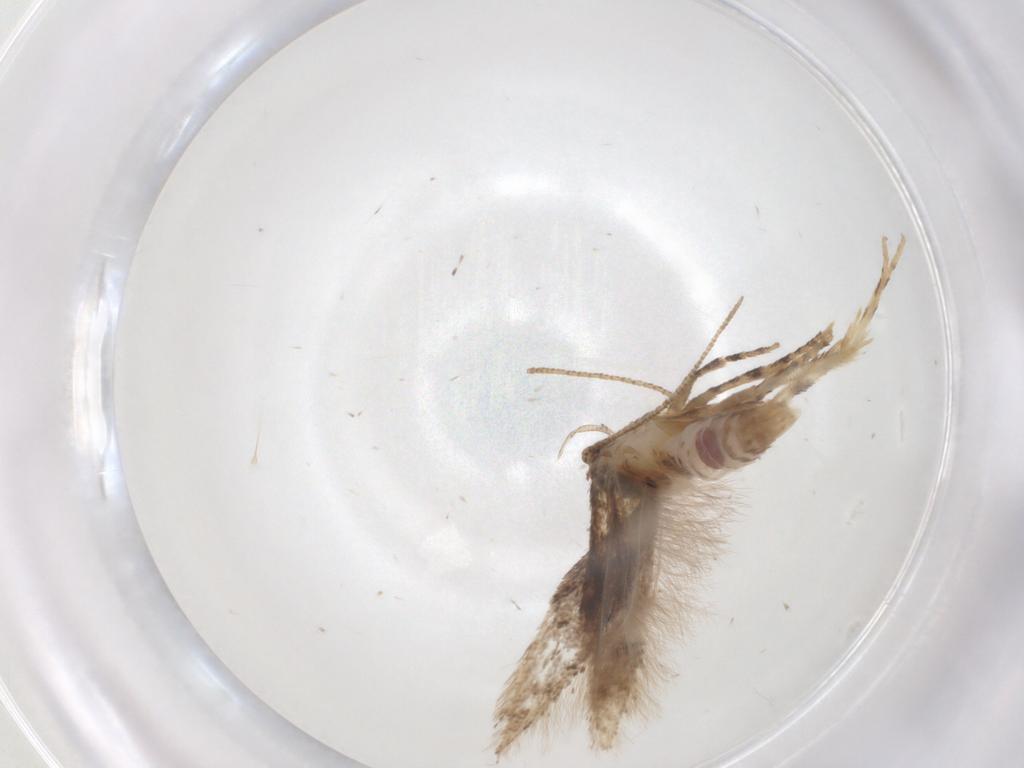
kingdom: Animalia
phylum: Arthropoda
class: Insecta
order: Lepidoptera
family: Gelechiidae
